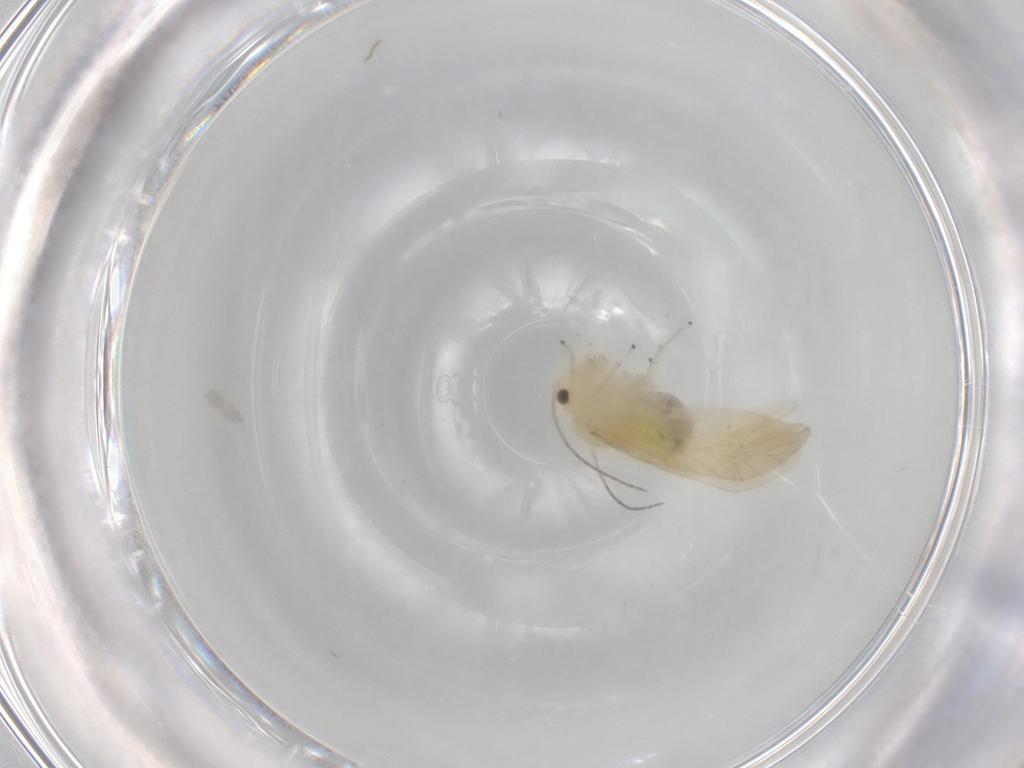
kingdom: Animalia
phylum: Arthropoda
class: Insecta
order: Psocodea
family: Caeciliusidae
